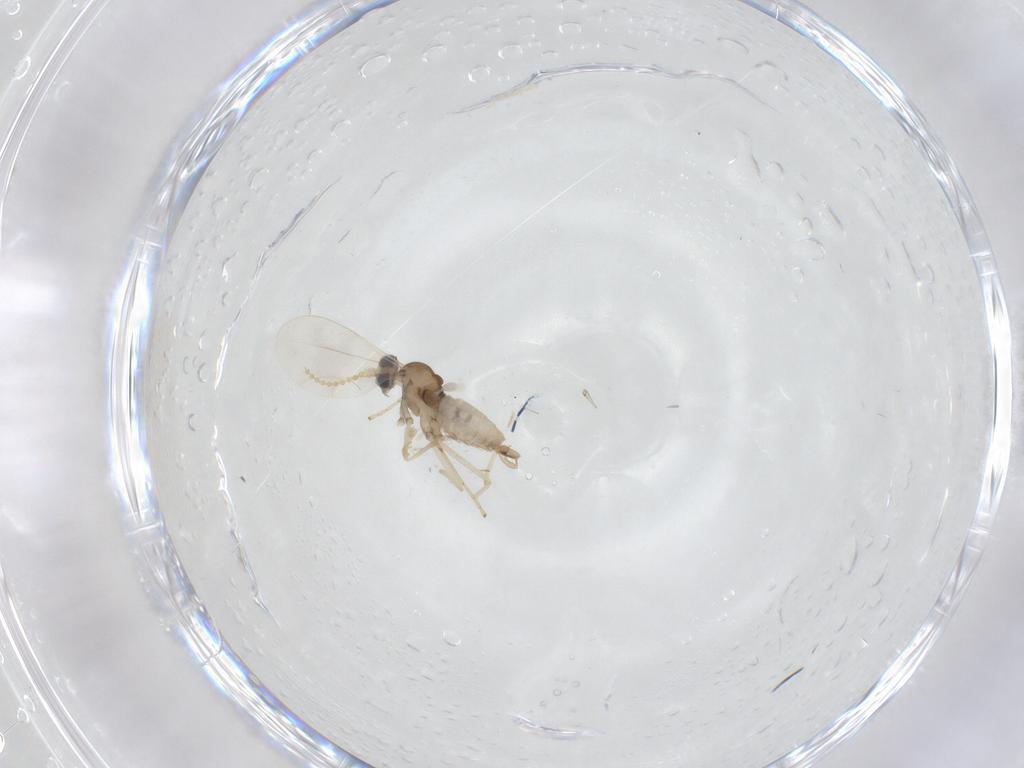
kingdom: Animalia
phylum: Arthropoda
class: Insecta
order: Diptera
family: Cecidomyiidae
